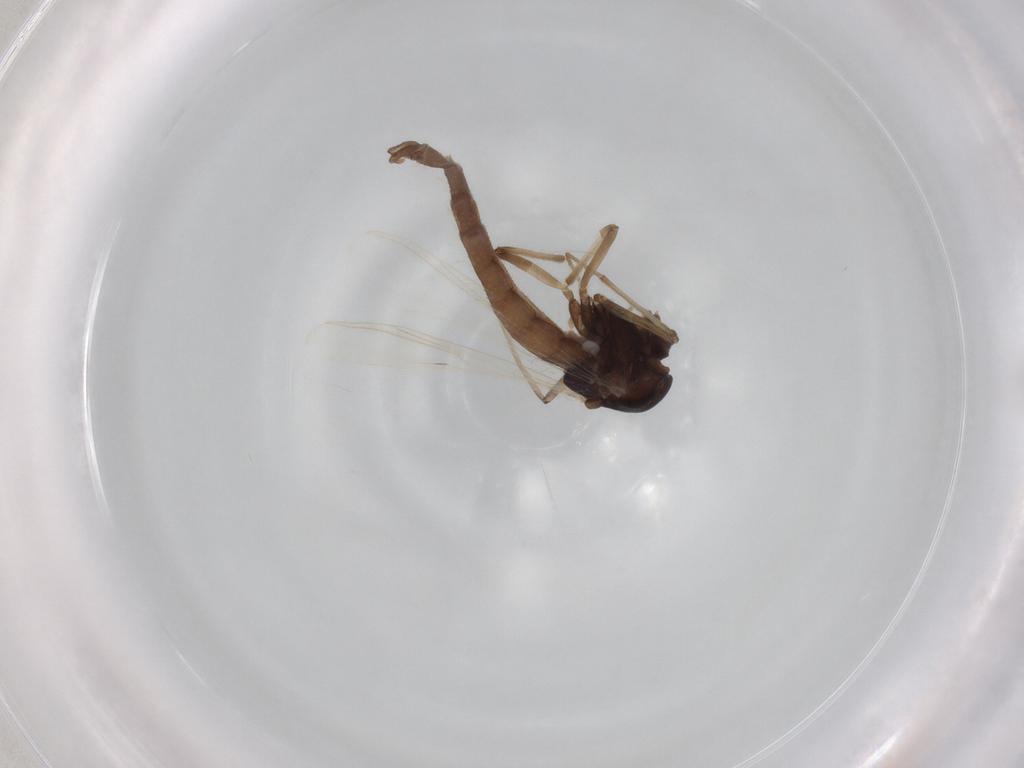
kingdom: Animalia
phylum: Arthropoda
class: Insecta
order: Diptera
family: Chironomidae
